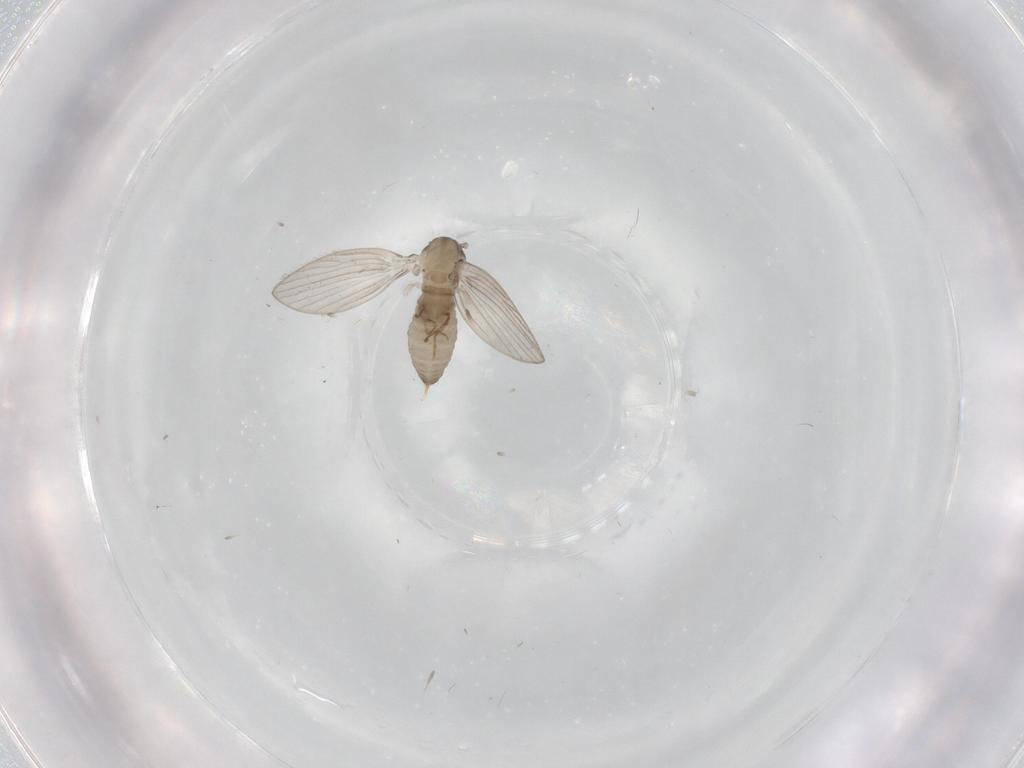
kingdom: Animalia
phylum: Arthropoda
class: Insecta
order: Diptera
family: Psychodidae
